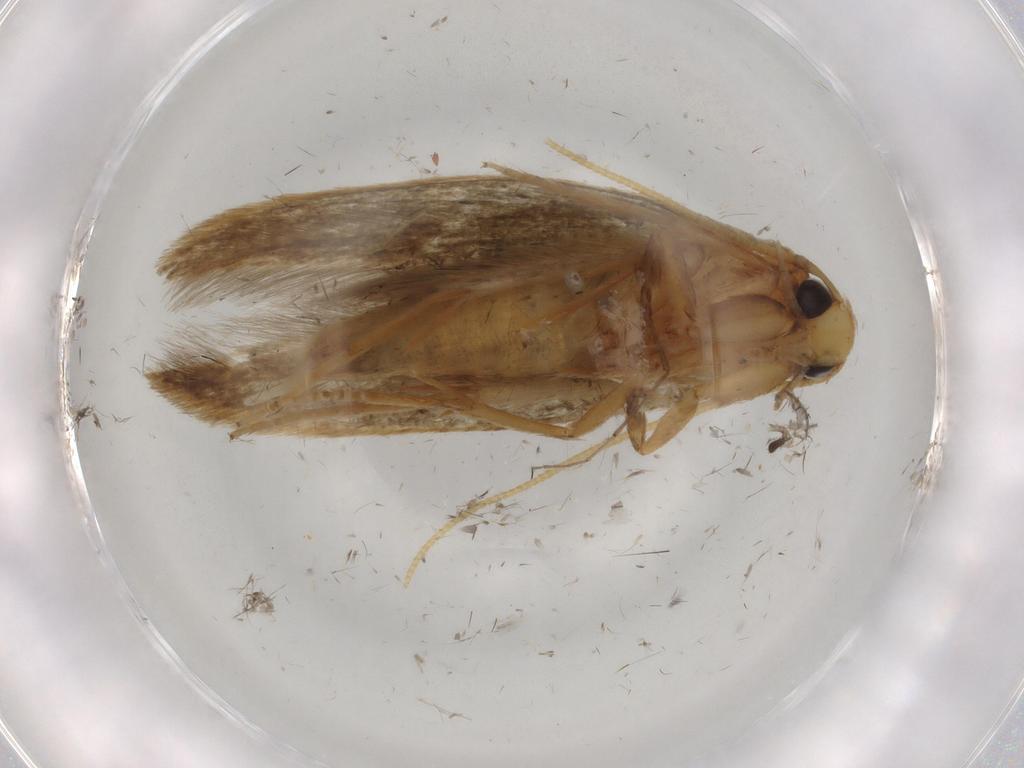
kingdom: Animalia
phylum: Arthropoda
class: Insecta
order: Lepidoptera
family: Tineidae
